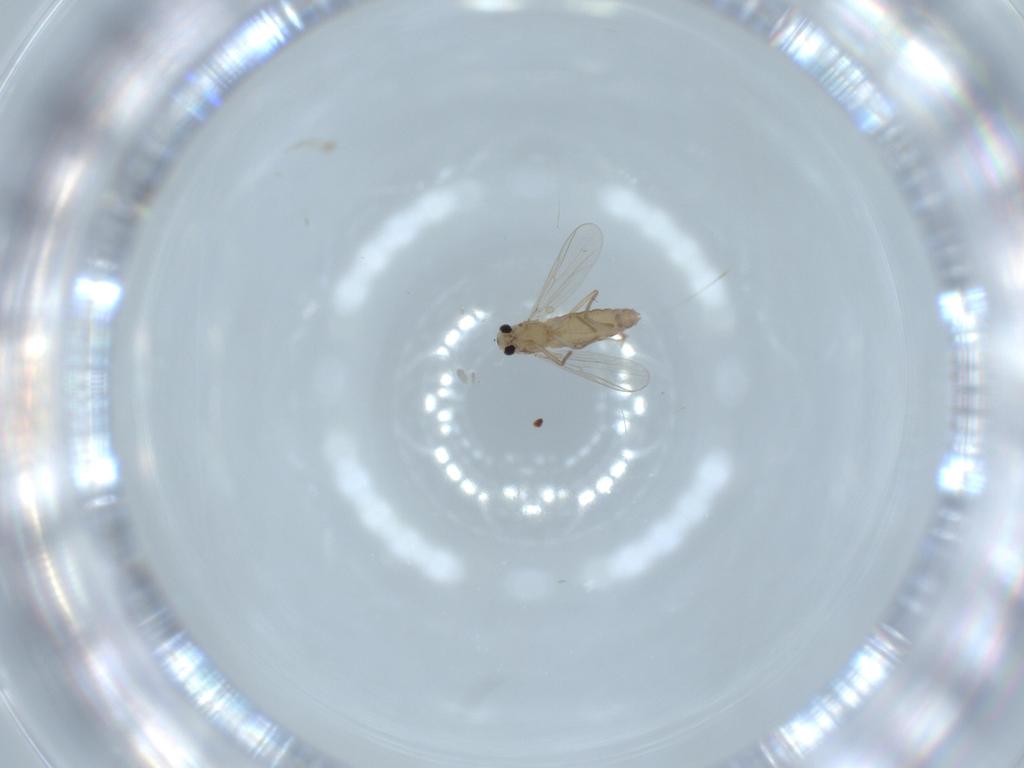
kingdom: Animalia
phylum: Arthropoda
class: Insecta
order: Diptera
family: Chironomidae
